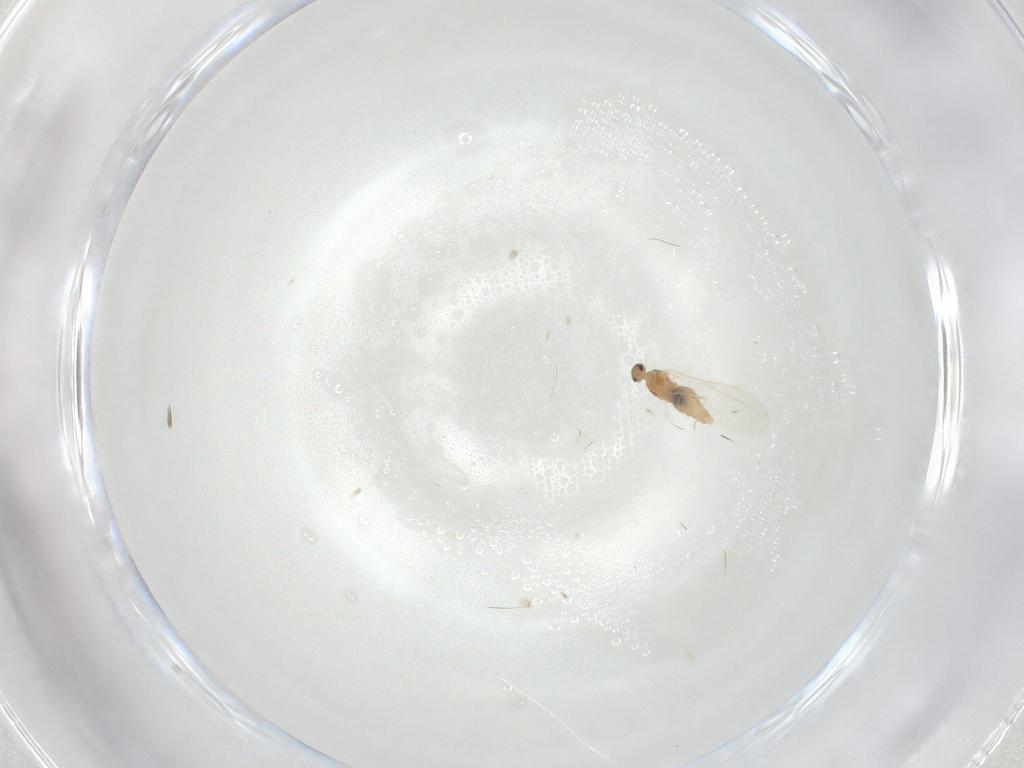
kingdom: Animalia
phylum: Arthropoda
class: Insecta
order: Diptera
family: Cecidomyiidae
